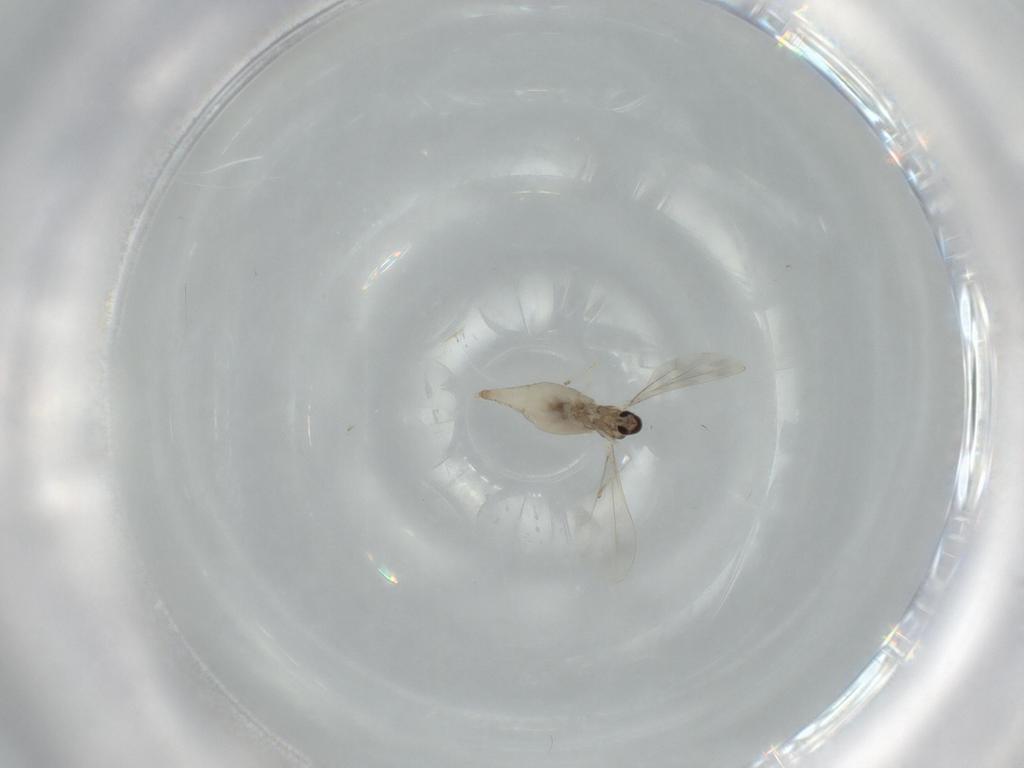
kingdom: Animalia
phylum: Arthropoda
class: Insecta
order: Diptera
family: Cecidomyiidae
